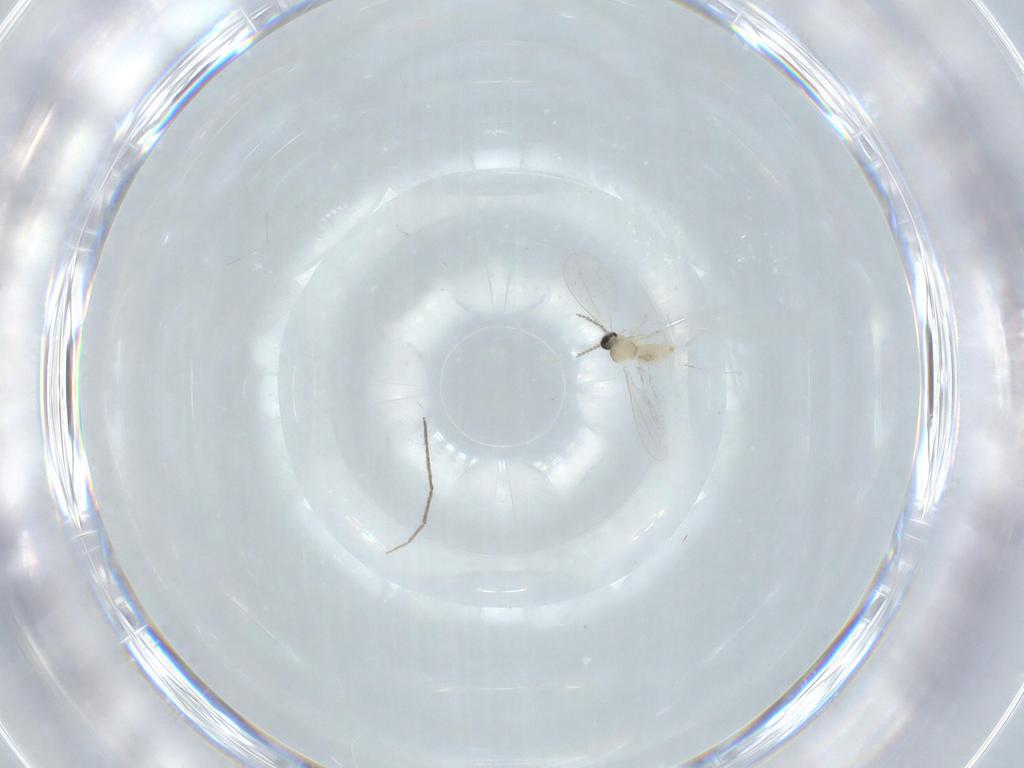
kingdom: Animalia
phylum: Arthropoda
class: Insecta
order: Diptera
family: Cecidomyiidae
